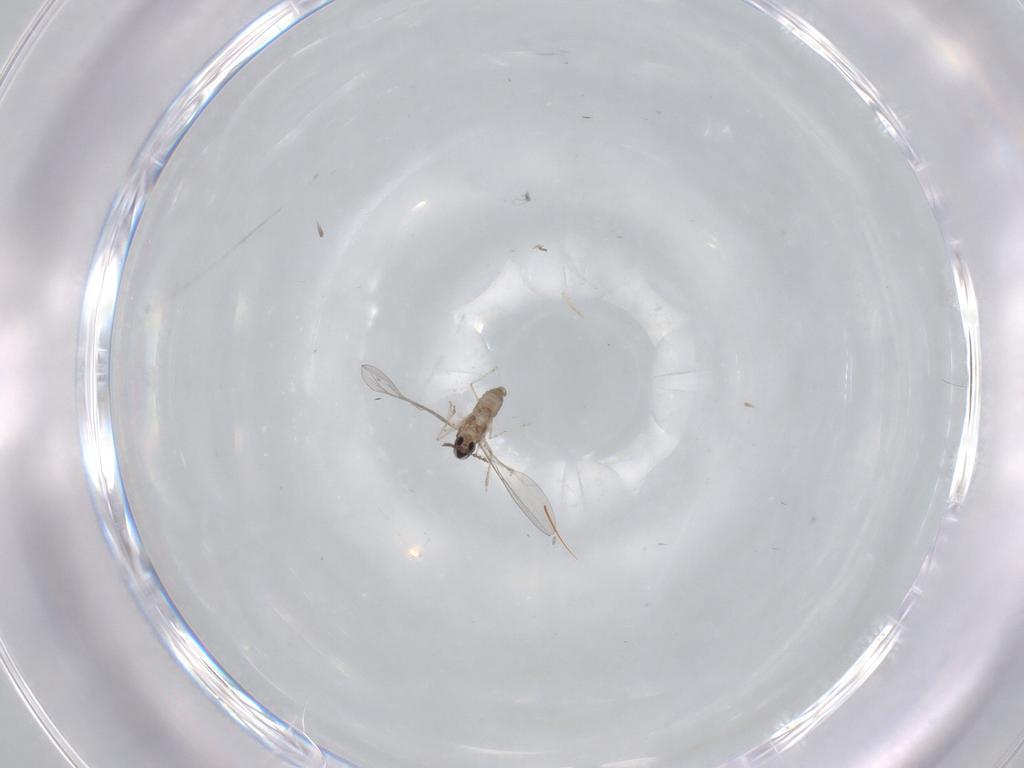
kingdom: Animalia
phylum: Arthropoda
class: Insecta
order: Diptera
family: Cecidomyiidae
